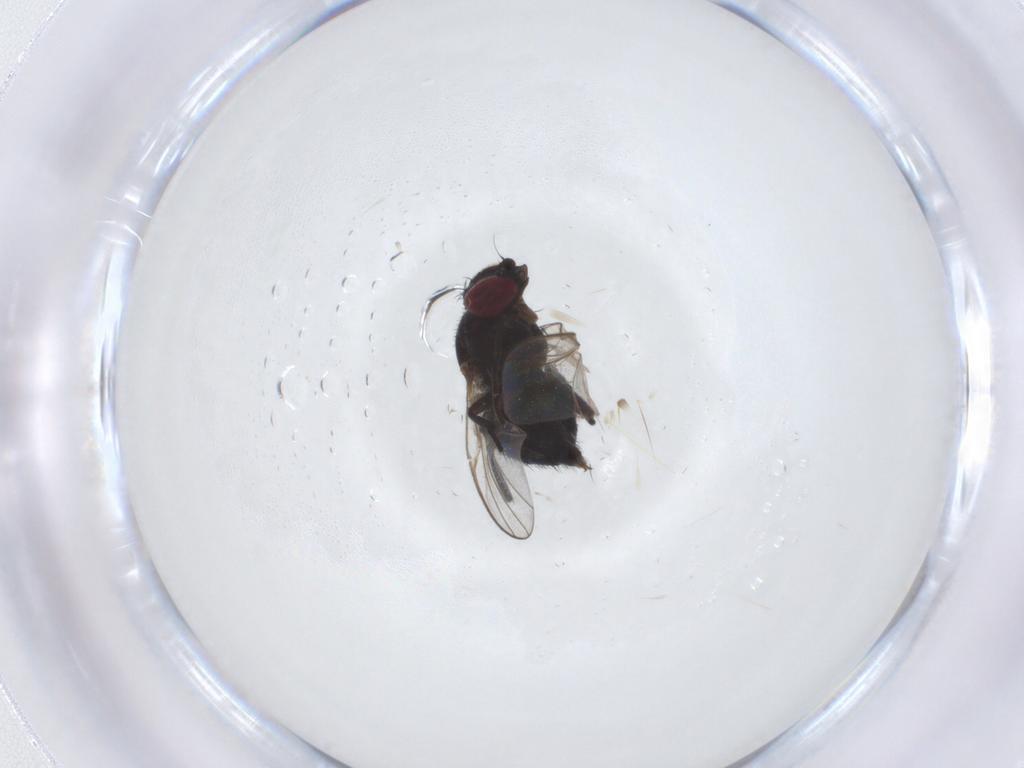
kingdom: Animalia
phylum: Arthropoda
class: Insecta
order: Diptera
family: Agromyzidae
